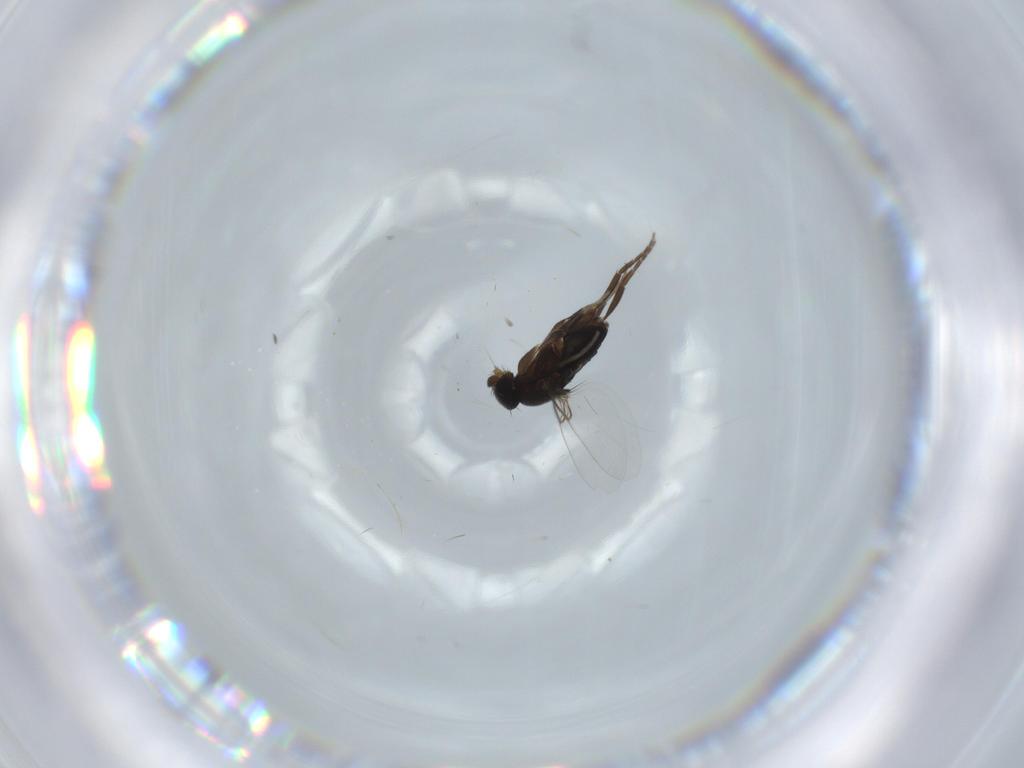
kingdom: Animalia
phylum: Arthropoda
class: Insecta
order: Diptera
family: Phoridae
